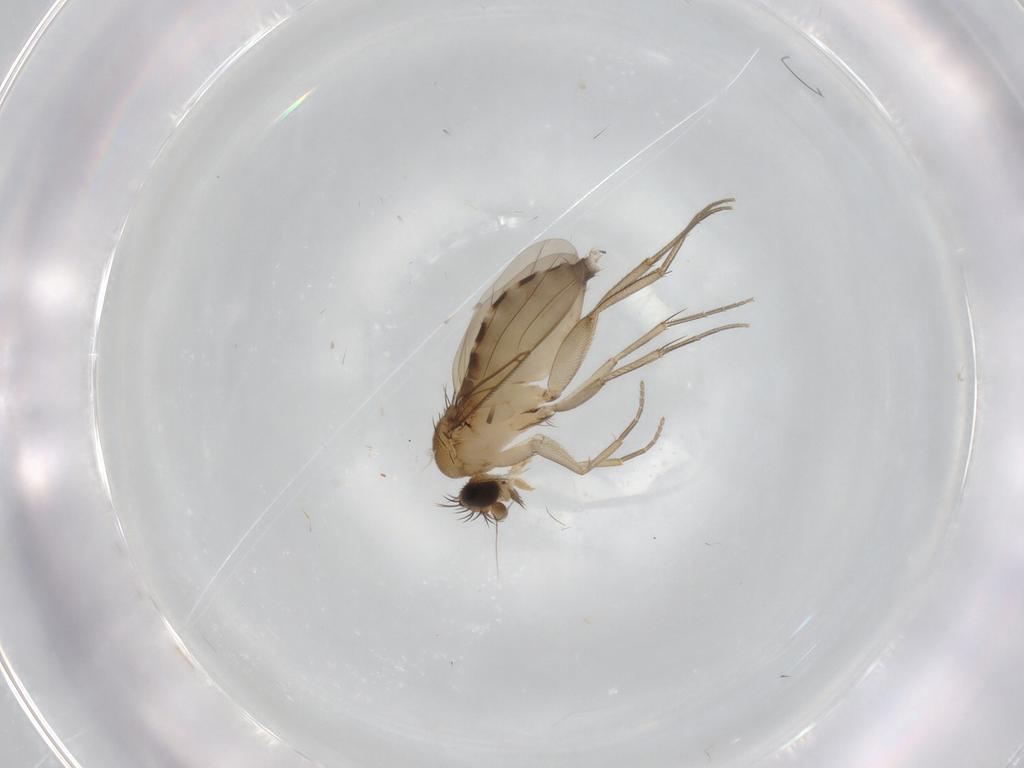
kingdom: Animalia
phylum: Arthropoda
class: Insecta
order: Diptera
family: Phoridae
